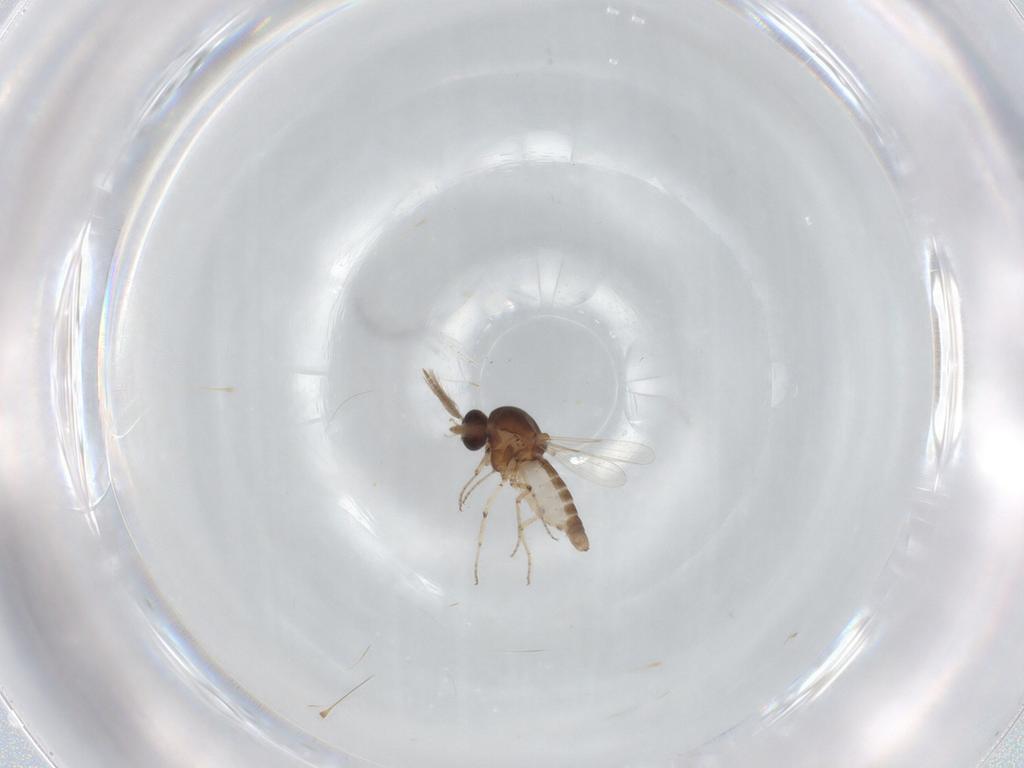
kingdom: Animalia
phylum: Arthropoda
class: Insecta
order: Diptera
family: Ceratopogonidae
